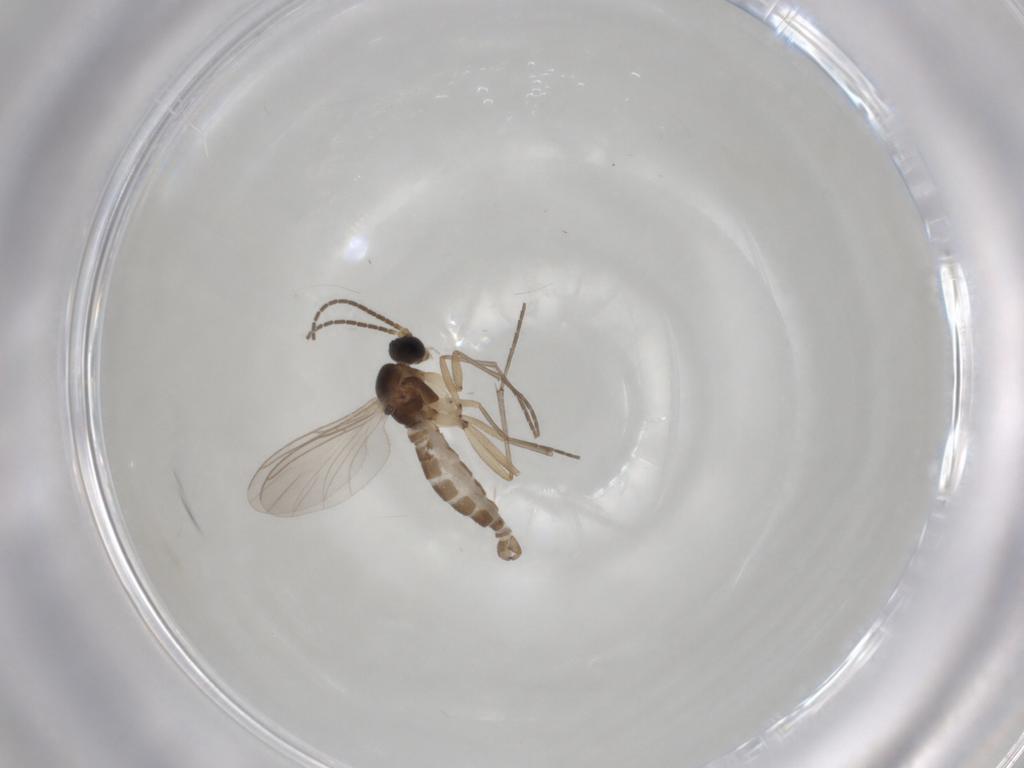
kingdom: Animalia
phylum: Arthropoda
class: Insecta
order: Diptera
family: Sciaridae
